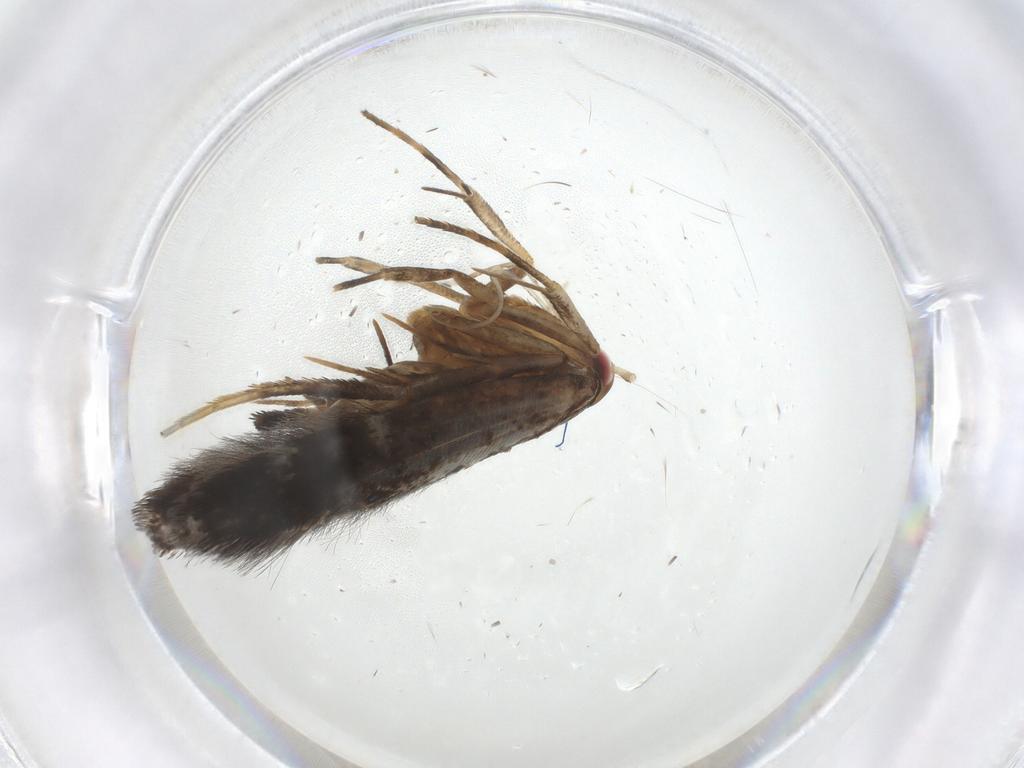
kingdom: Animalia
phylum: Arthropoda
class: Insecta
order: Lepidoptera
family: Cosmopterigidae
